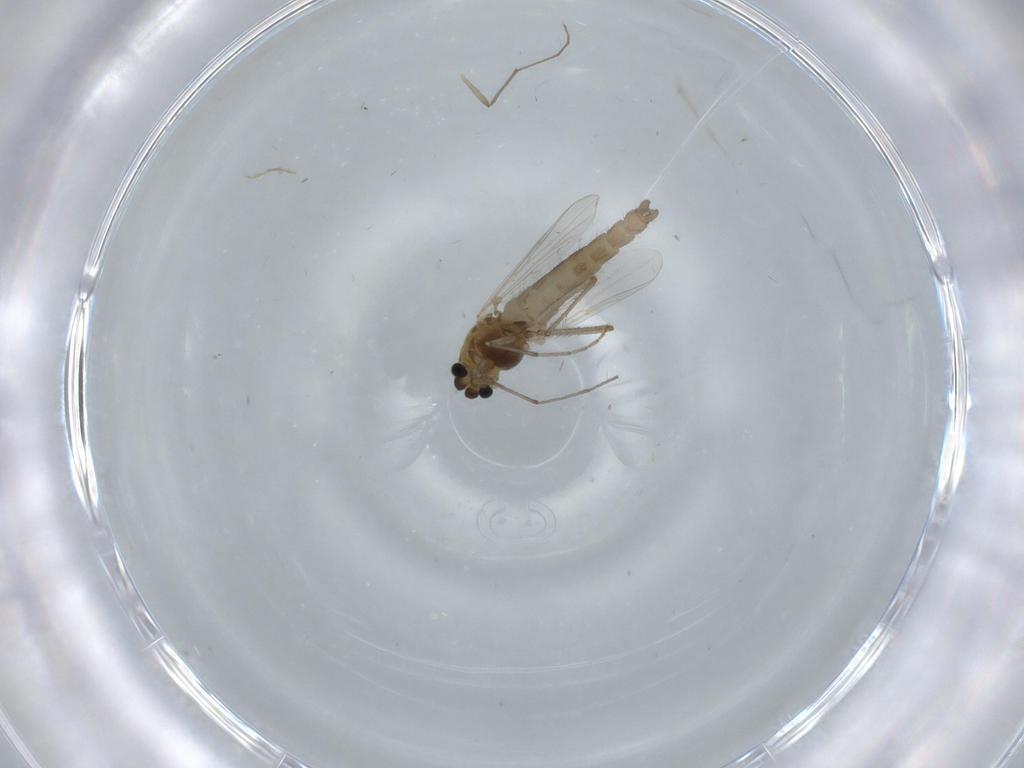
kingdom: Animalia
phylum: Arthropoda
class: Insecta
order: Diptera
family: Chironomidae
